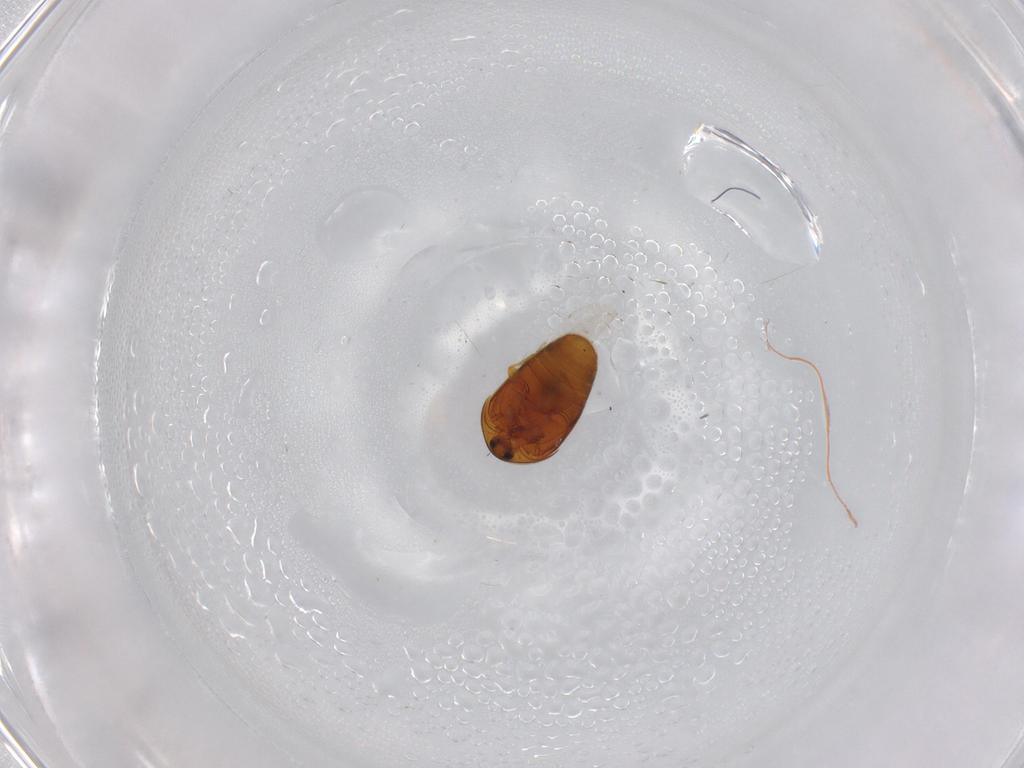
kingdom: Animalia
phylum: Arthropoda
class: Insecta
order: Coleoptera
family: Corylophidae
